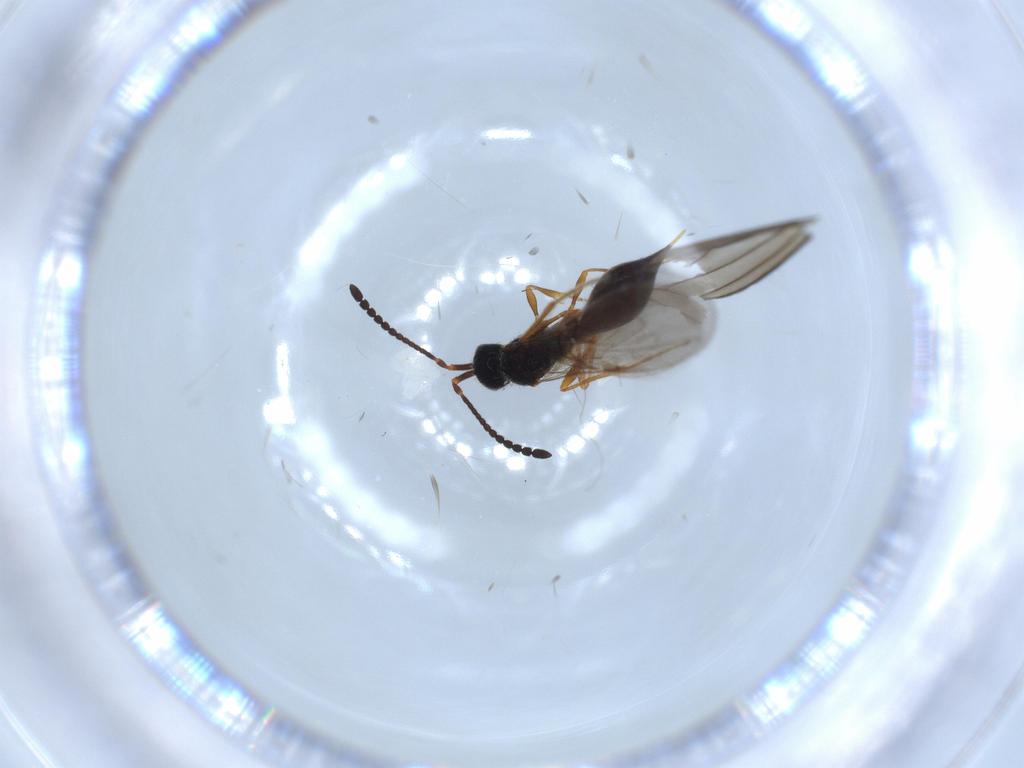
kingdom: Animalia
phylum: Arthropoda
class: Insecta
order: Hymenoptera
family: Diapriidae
